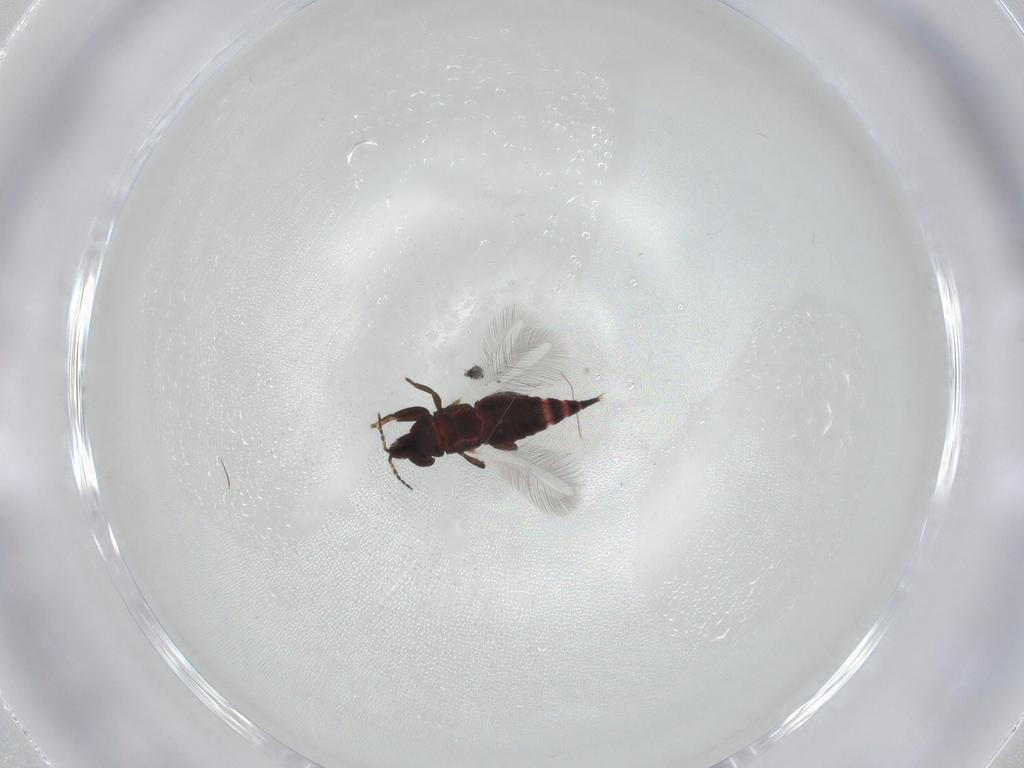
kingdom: Animalia
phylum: Arthropoda
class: Insecta
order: Thysanoptera
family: Phlaeothripidae
